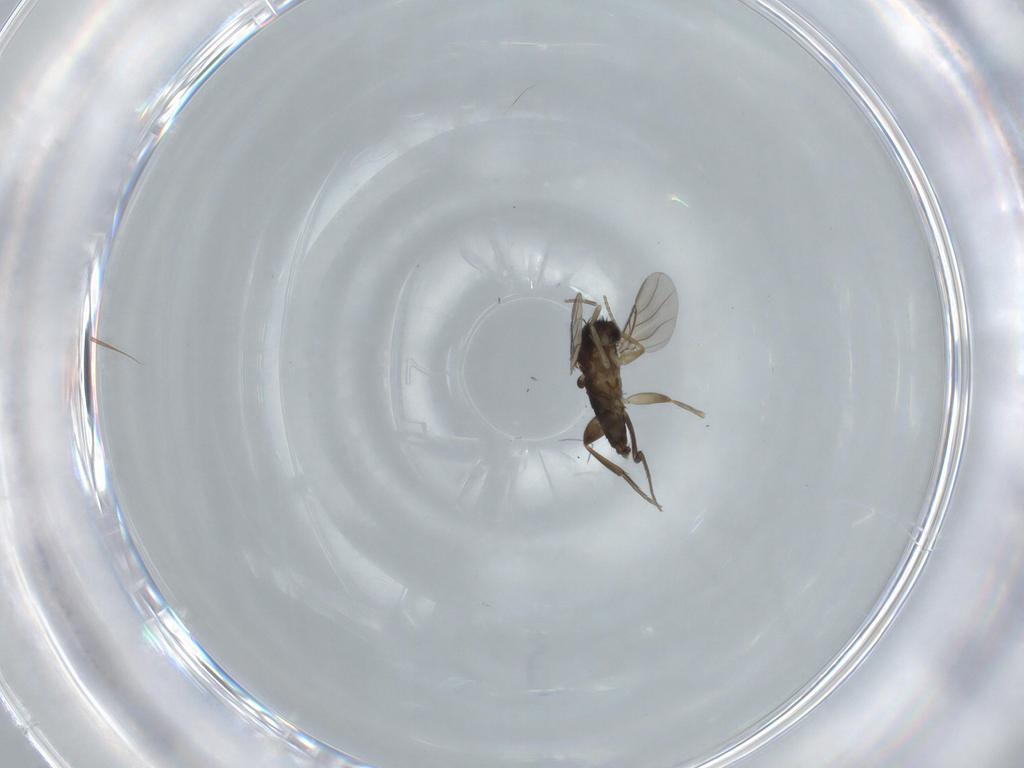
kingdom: Animalia
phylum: Arthropoda
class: Insecta
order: Diptera
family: Phoridae
